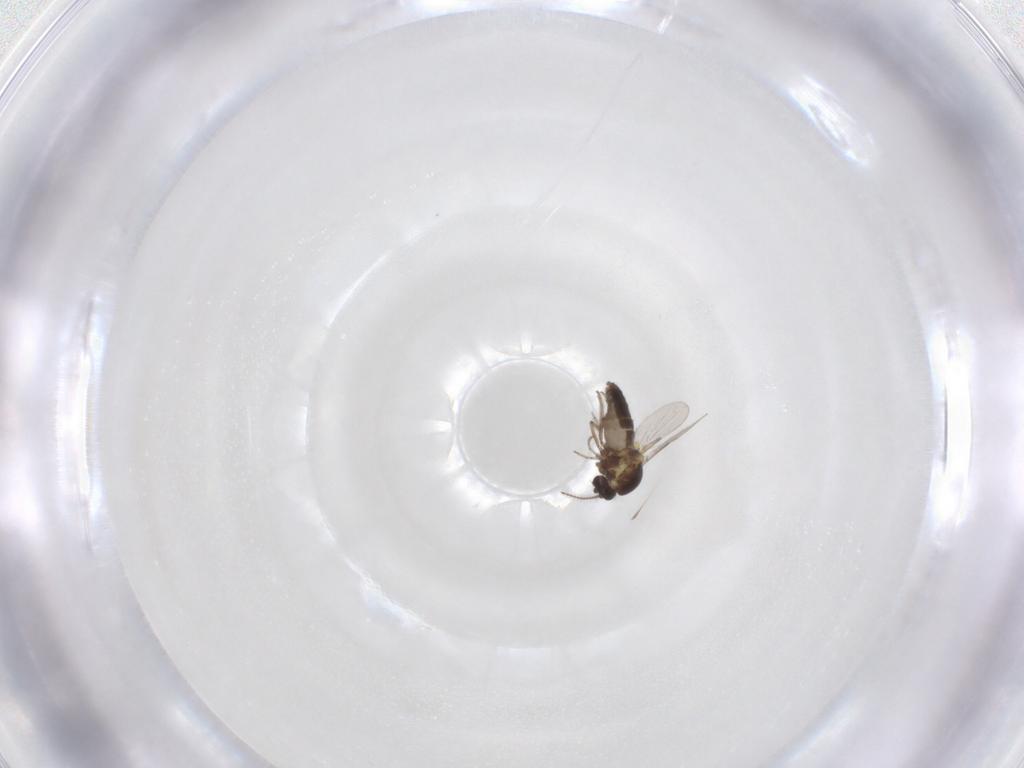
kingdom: Animalia
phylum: Arthropoda
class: Insecta
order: Diptera
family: Ceratopogonidae
